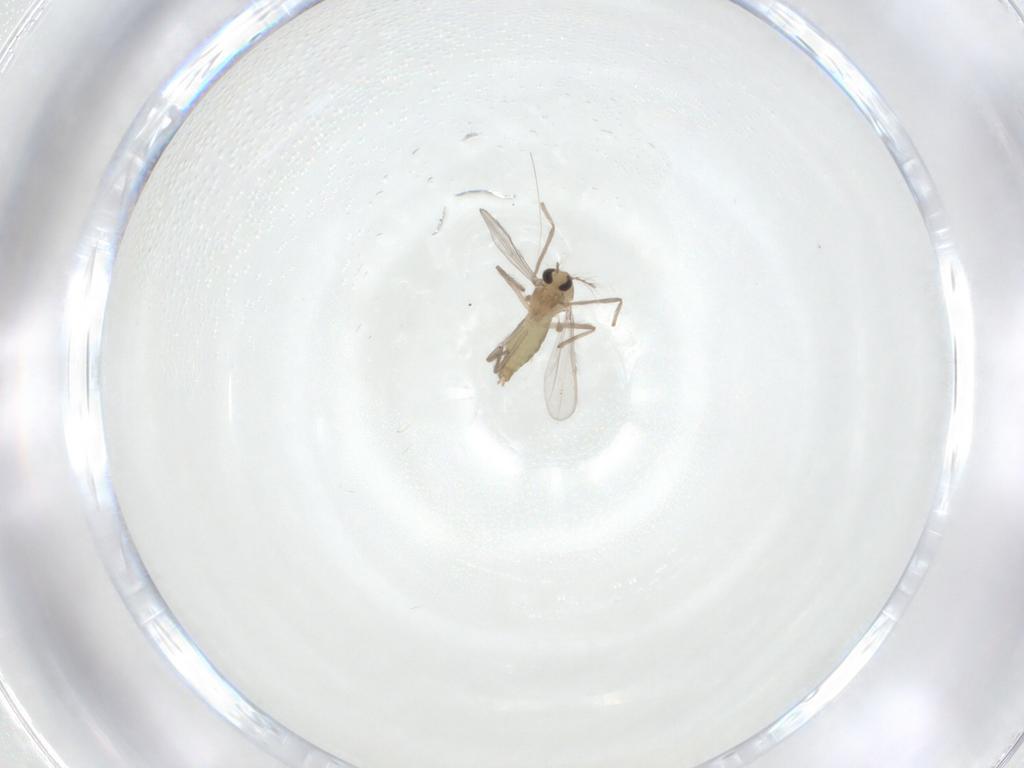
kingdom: Animalia
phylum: Arthropoda
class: Insecta
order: Diptera
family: Chironomidae
